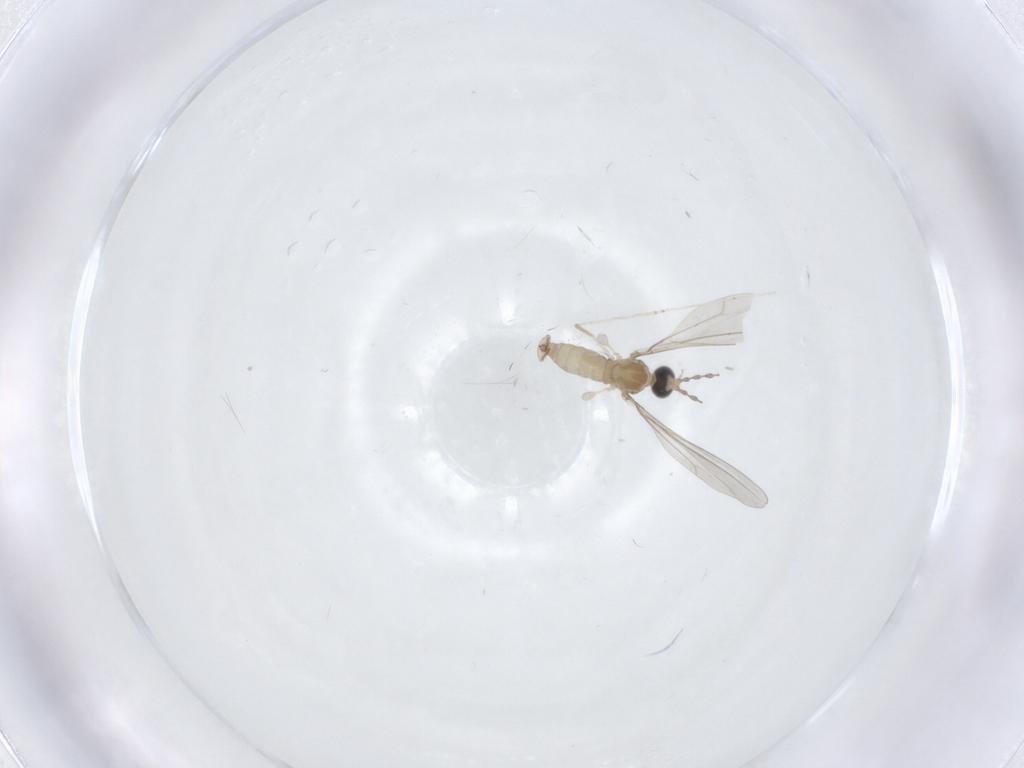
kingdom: Animalia
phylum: Arthropoda
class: Insecta
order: Diptera
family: Cecidomyiidae
